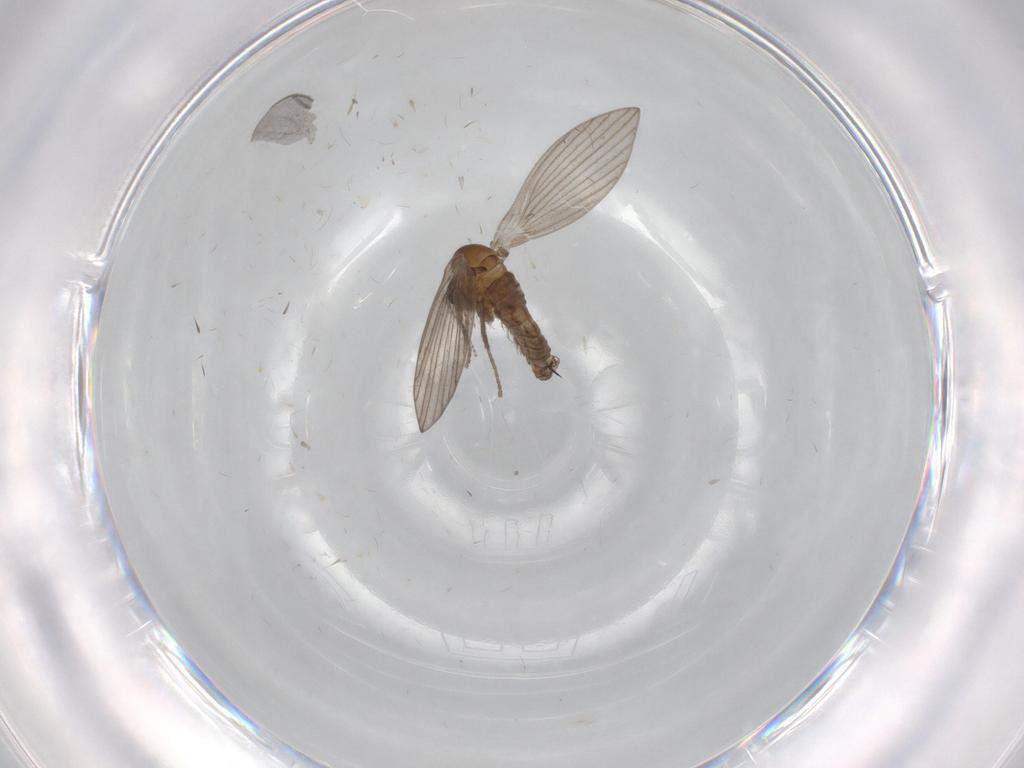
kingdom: Animalia
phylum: Arthropoda
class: Insecta
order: Diptera
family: Psychodidae
